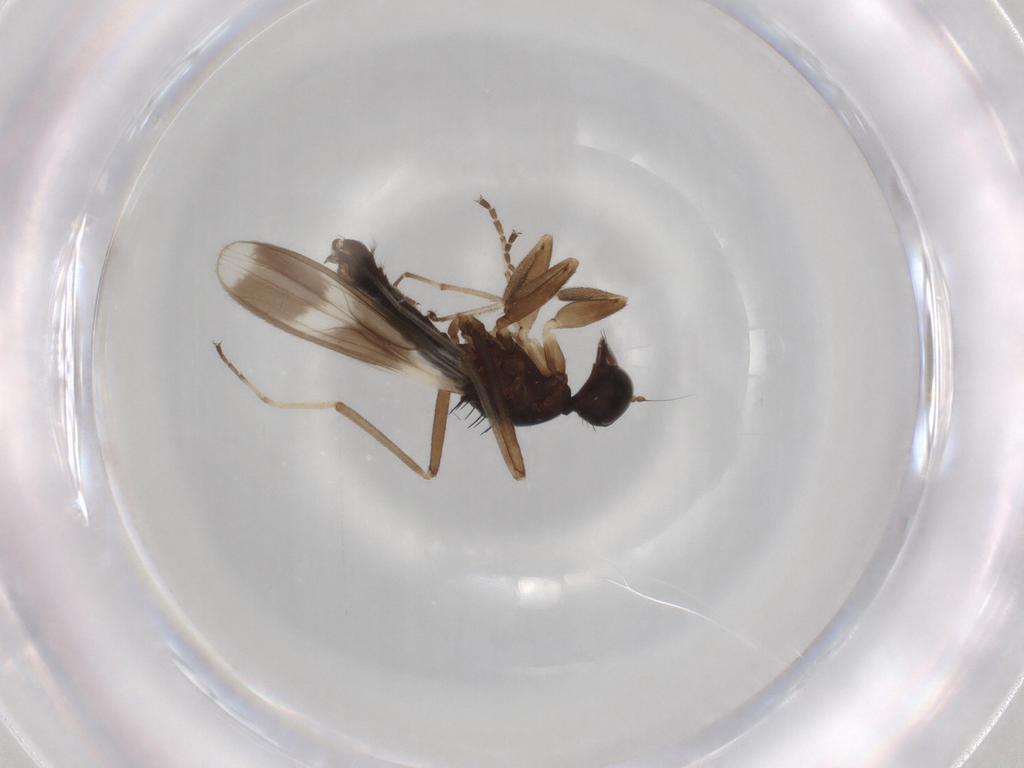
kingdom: Animalia
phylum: Arthropoda
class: Insecta
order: Diptera
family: Hybotidae
